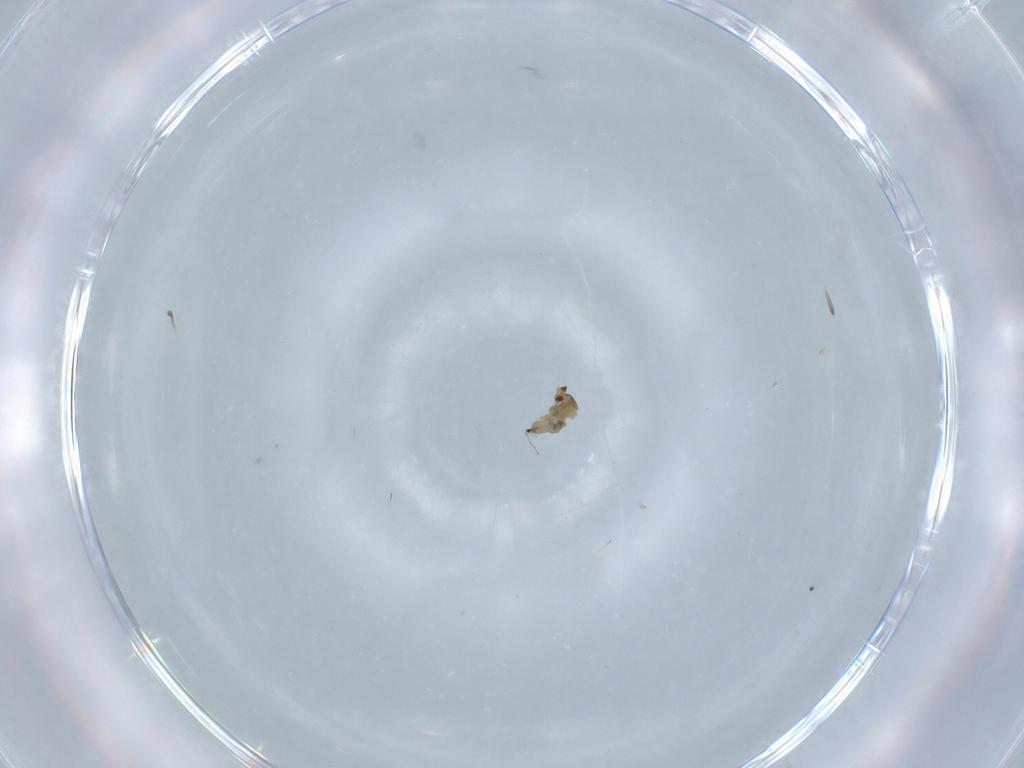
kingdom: Animalia
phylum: Arthropoda
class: Insecta
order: Diptera
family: Cecidomyiidae
